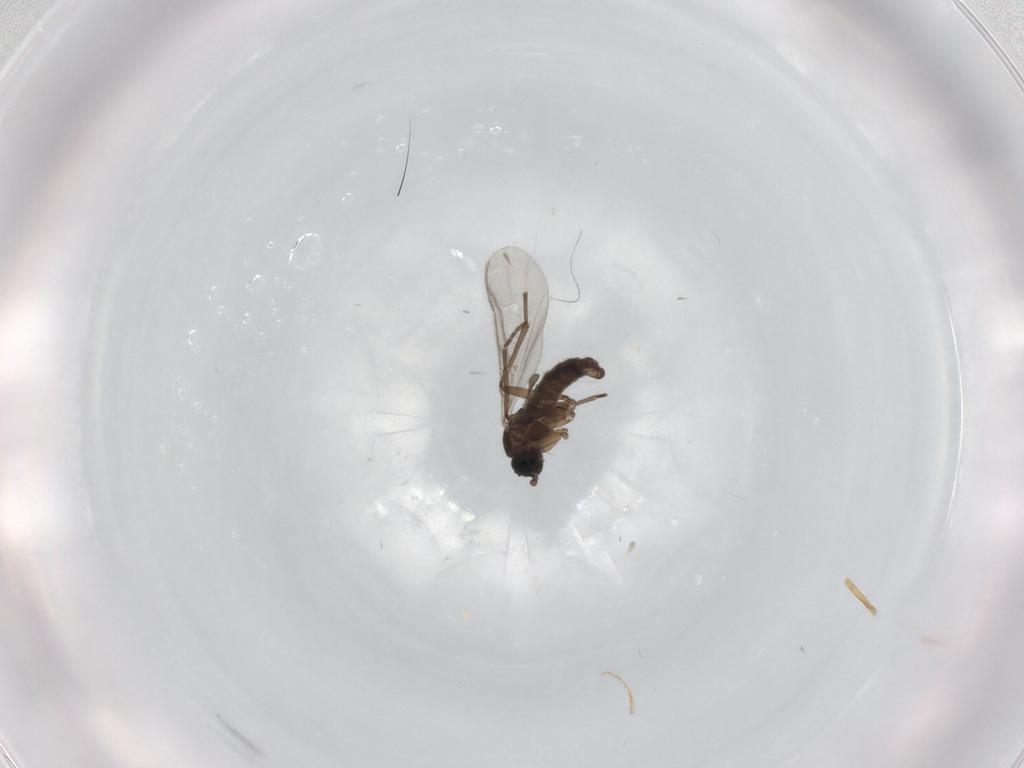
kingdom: Animalia
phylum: Arthropoda
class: Insecta
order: Diptera
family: Sciaridae
